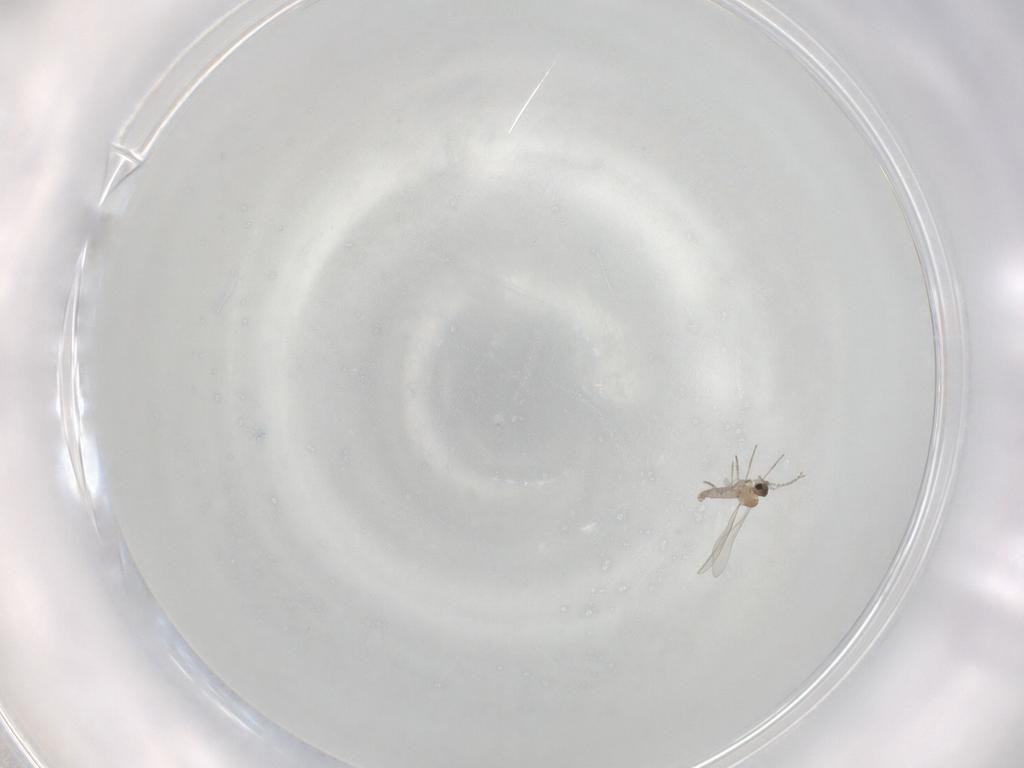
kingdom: Animalia
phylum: Arthropoda
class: Insecta
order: Diptera
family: Cecidomyiidae
